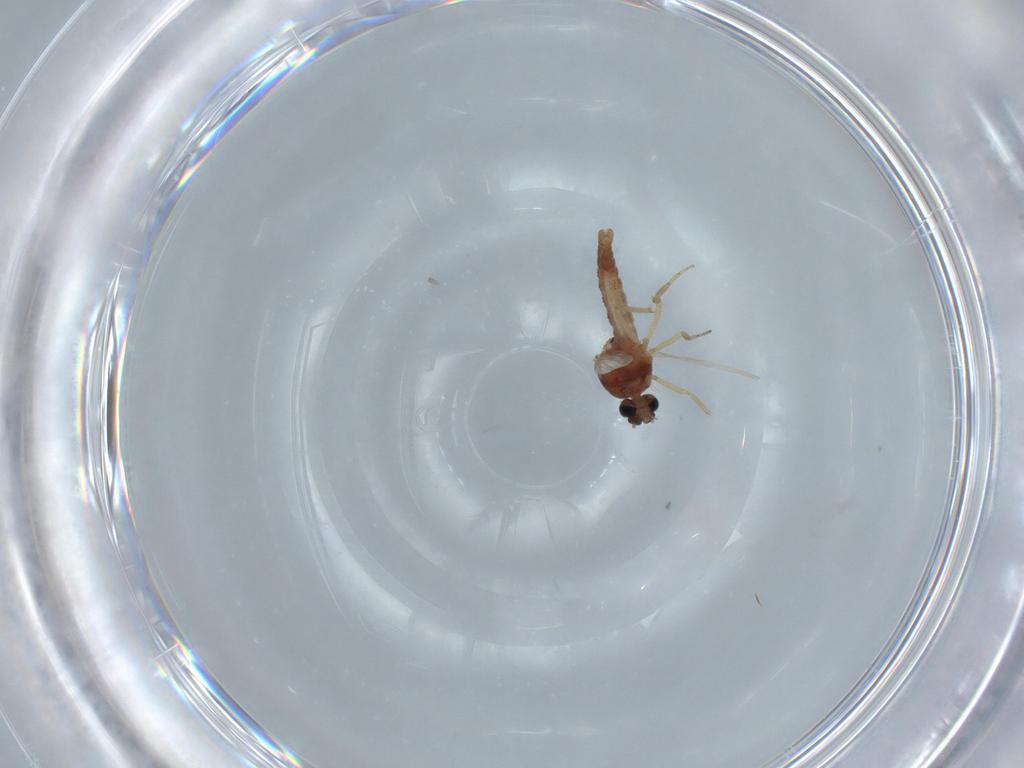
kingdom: Animalia
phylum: Arthropoda
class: Insecta
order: Diptera
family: Ceratopogonidae
